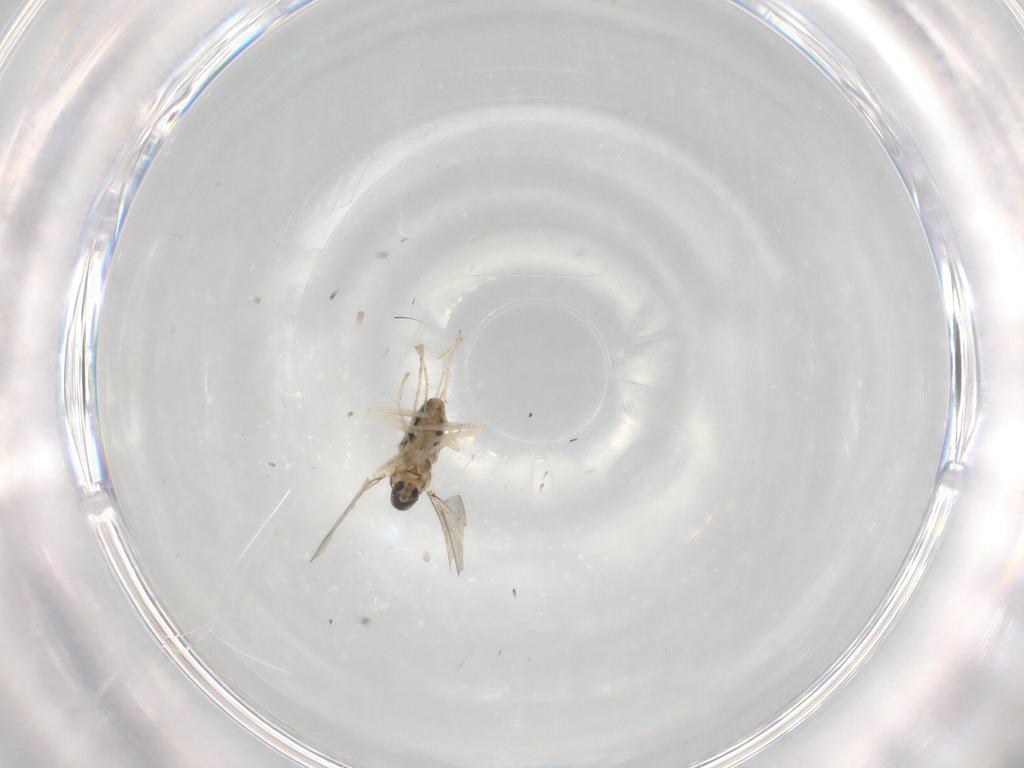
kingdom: Animalia
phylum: Arthropoda
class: Insecta
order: Diptera
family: Cecidomyiidae
